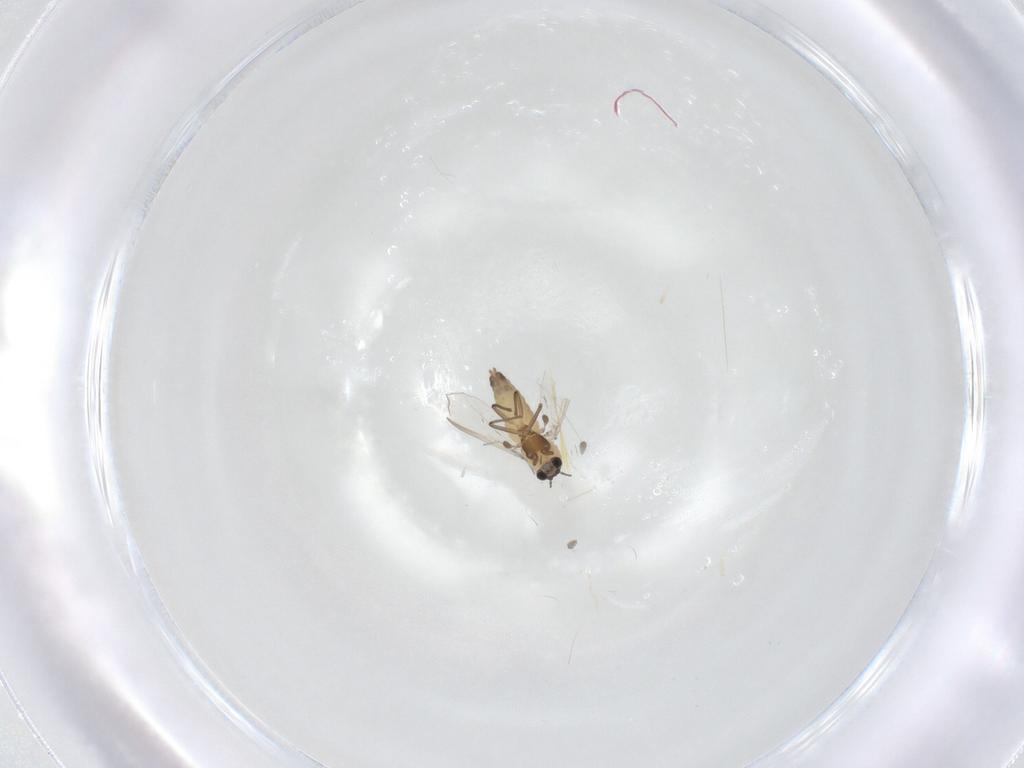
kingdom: Animalia
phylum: Arthropoda
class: Insecta
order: Diptera
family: Chironomidae
